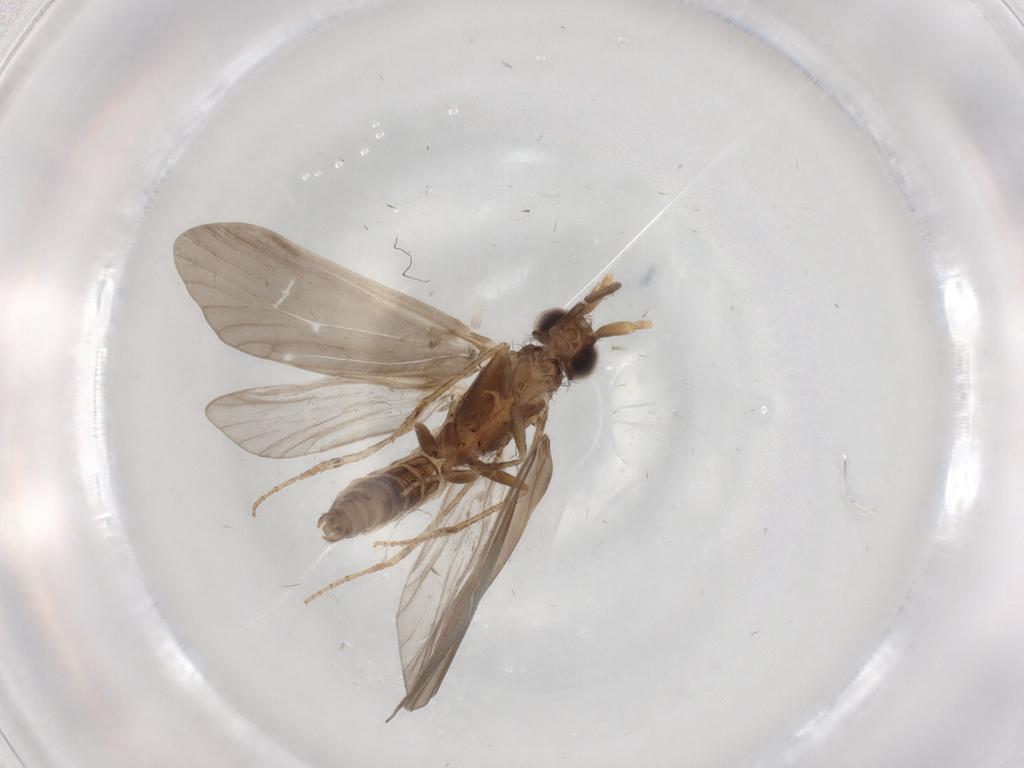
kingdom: Animalia
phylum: Arthropoda
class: Insecta
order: Trichoptera
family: Helicopsychidae
